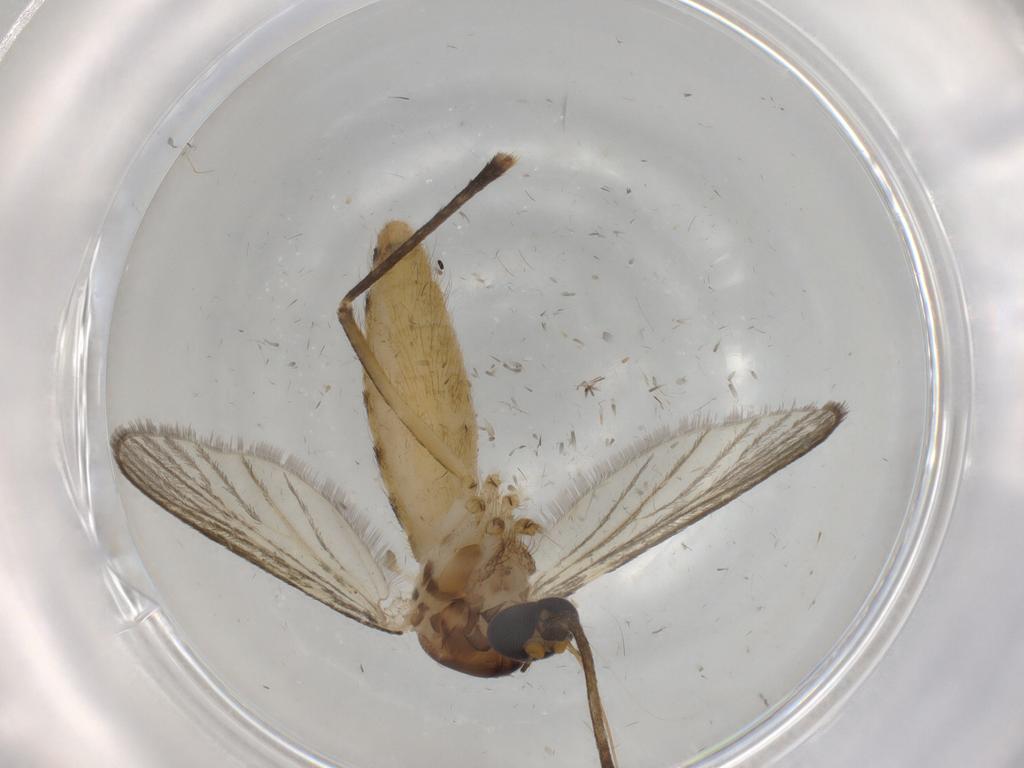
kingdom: Animalia
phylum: Arthropoda
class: Insecta
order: Diptera
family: Culicidae
